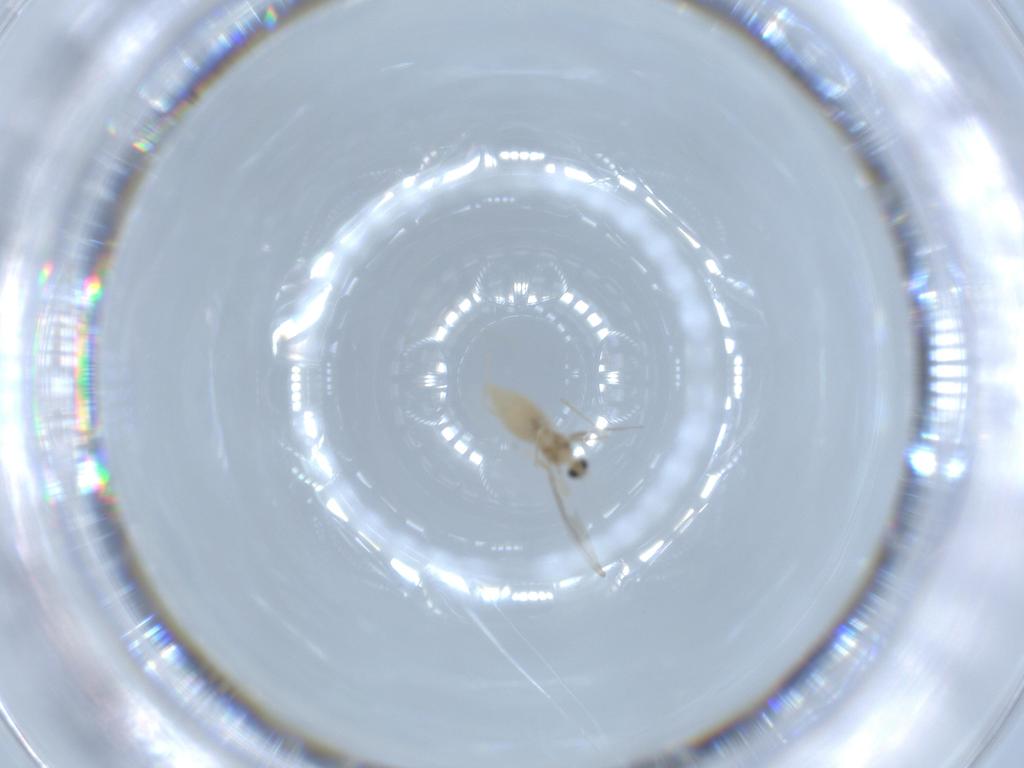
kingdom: Animalia
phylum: Arthropoda
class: Insecta
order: Diptera
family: Cecidomyiidae
